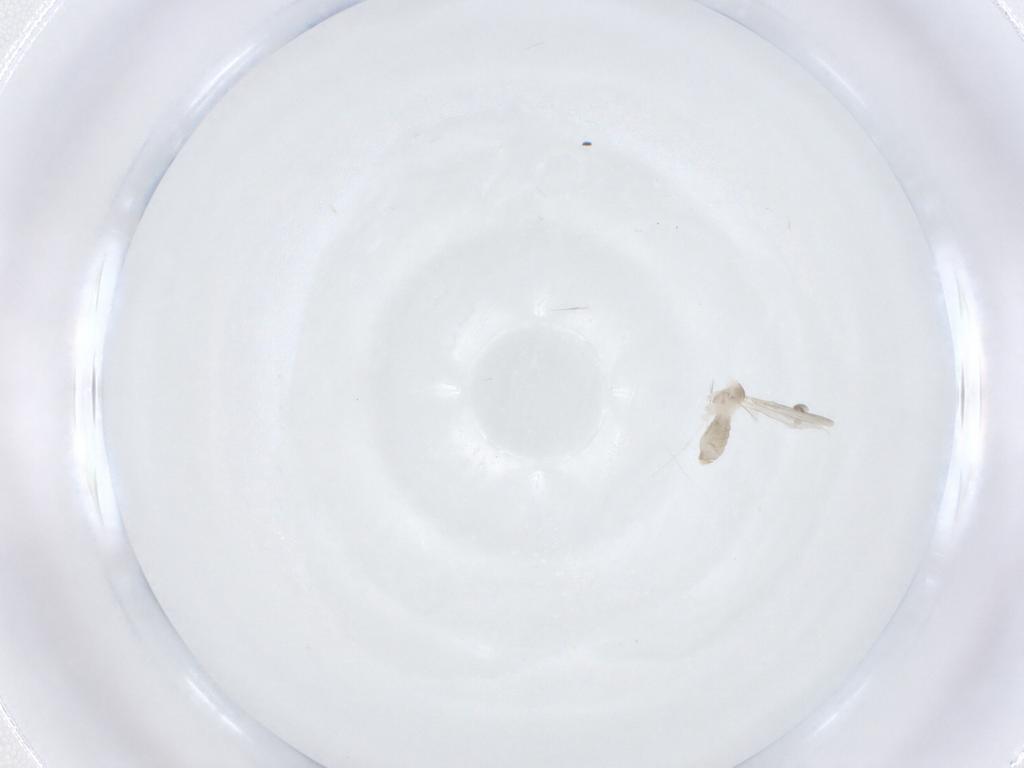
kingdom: Animalia
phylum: Arthropoda
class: Insecta
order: Diptera
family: Cecidomyiidae
